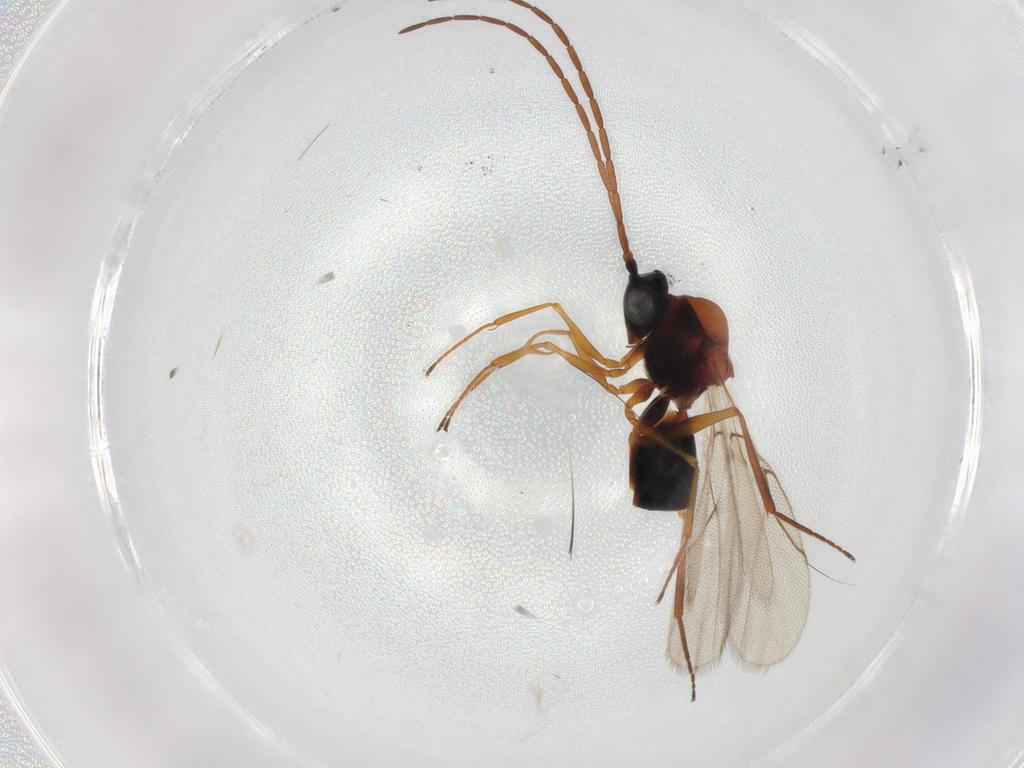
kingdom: Animalia
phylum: Arthropoda
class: Insecta
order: Hymenoptera
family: Figitidae
